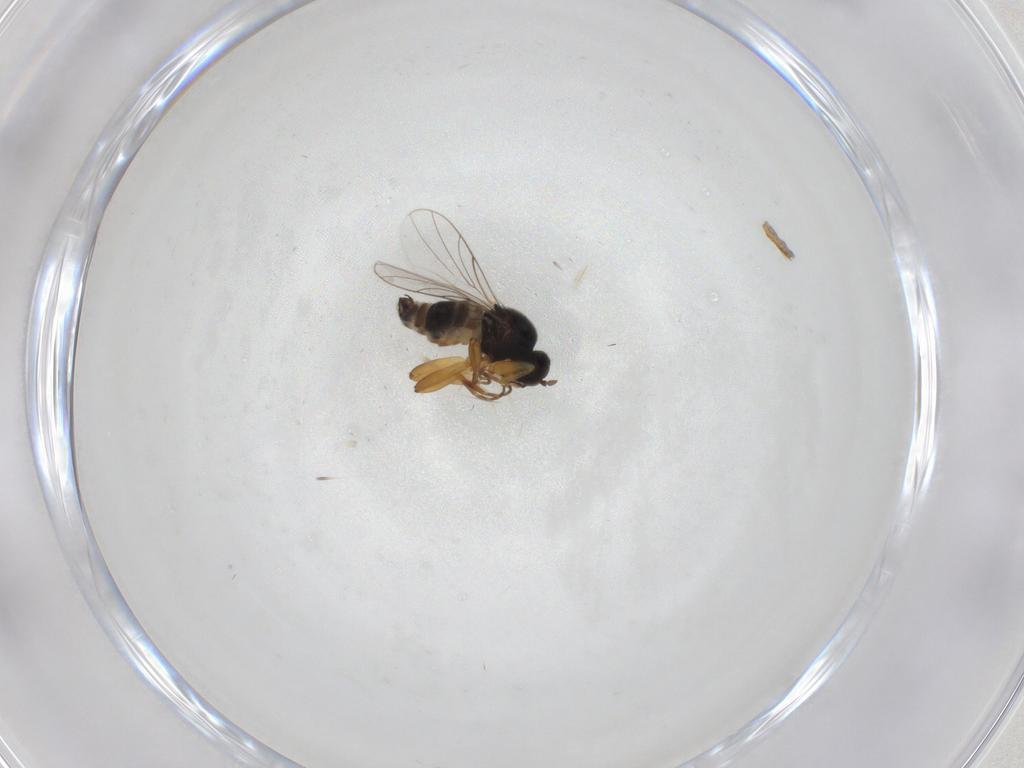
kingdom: Animalia
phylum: Arthropoda
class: Insecta
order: Diptera
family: Hybotidae
